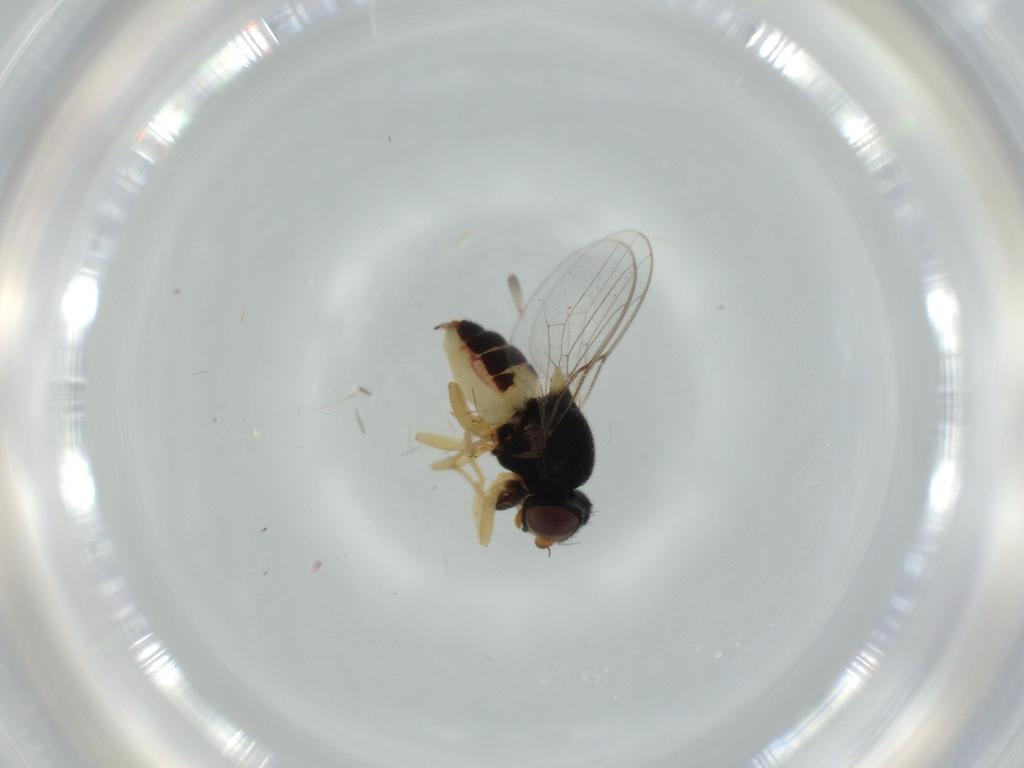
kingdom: Animalia
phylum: Arthropoda
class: Insecta
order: Diptera
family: Chloropidae
